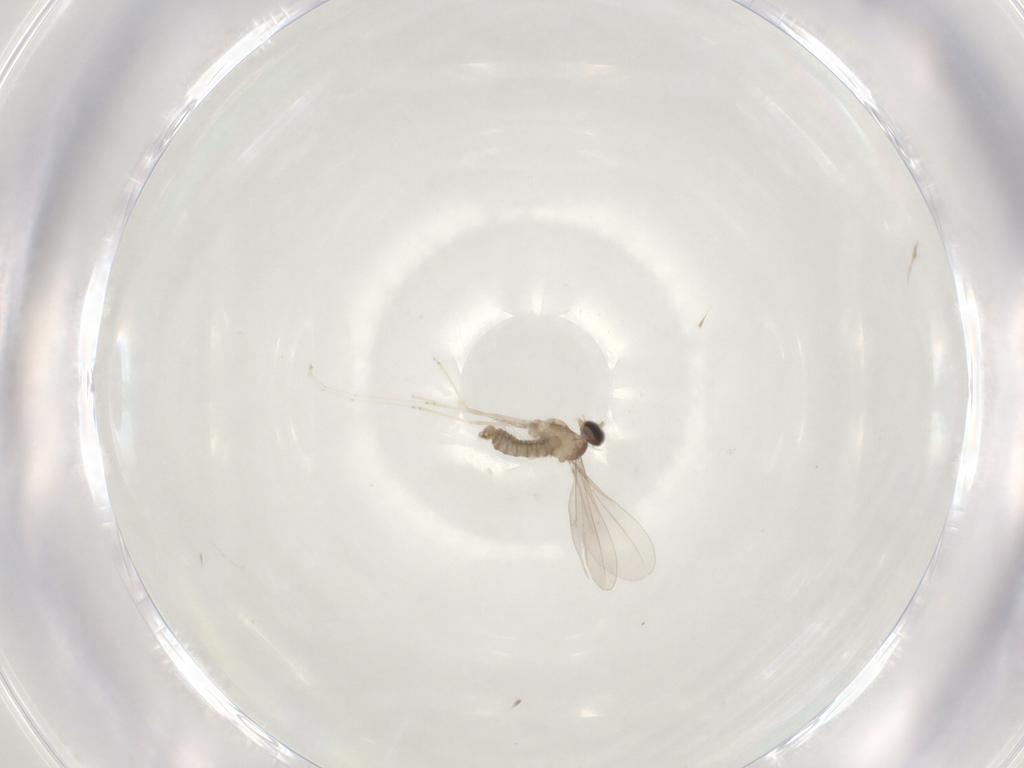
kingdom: Animalia
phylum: Arthropoda
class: Insecta
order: Diptera
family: Cecidomyiidae
